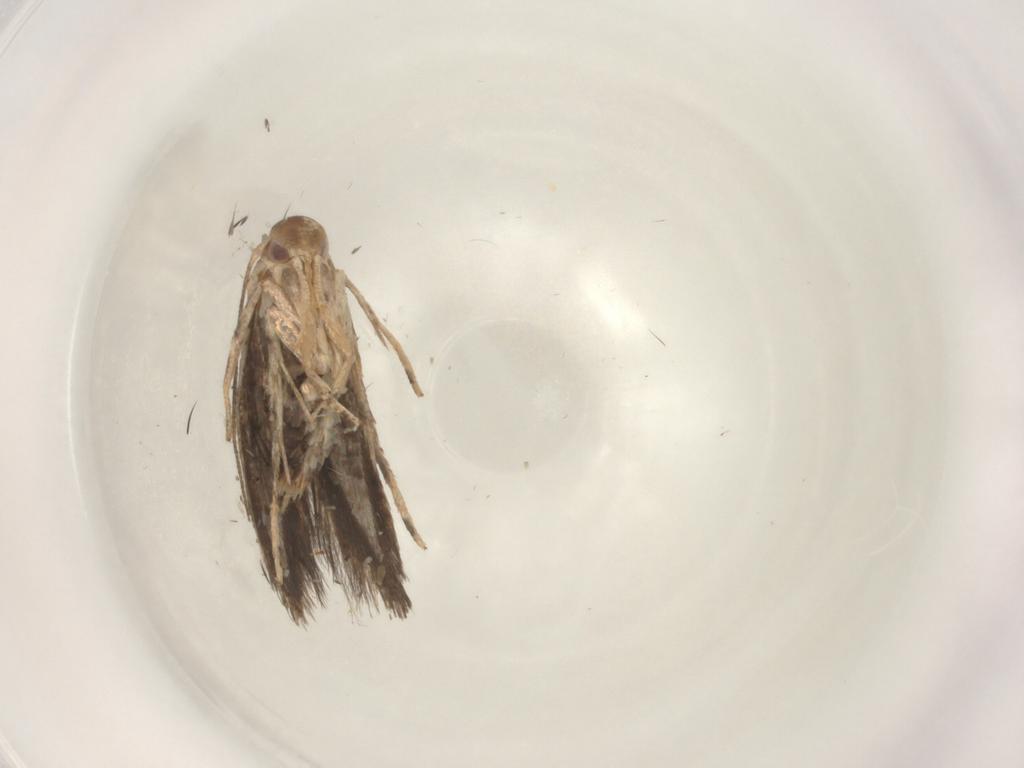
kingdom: Animalia
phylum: Arthropoda
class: Insecta
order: Lepidoptera
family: Momphidae
